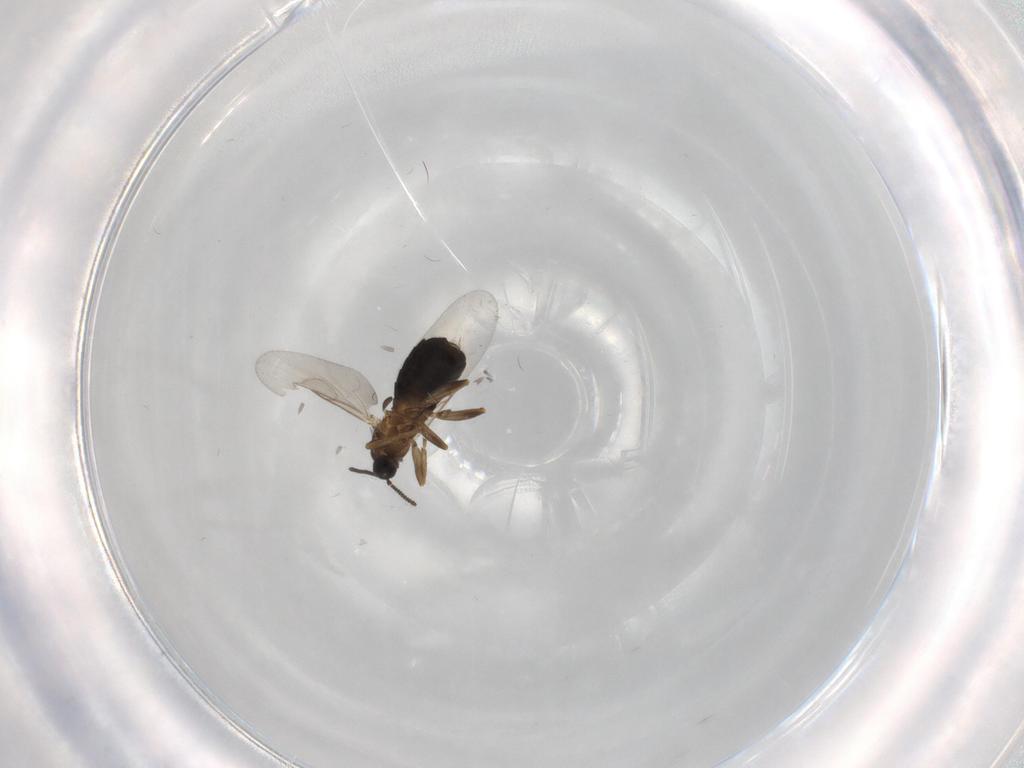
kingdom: Animalia
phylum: Arthropoda
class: Insecta
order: Diptera
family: Scatopsidae
